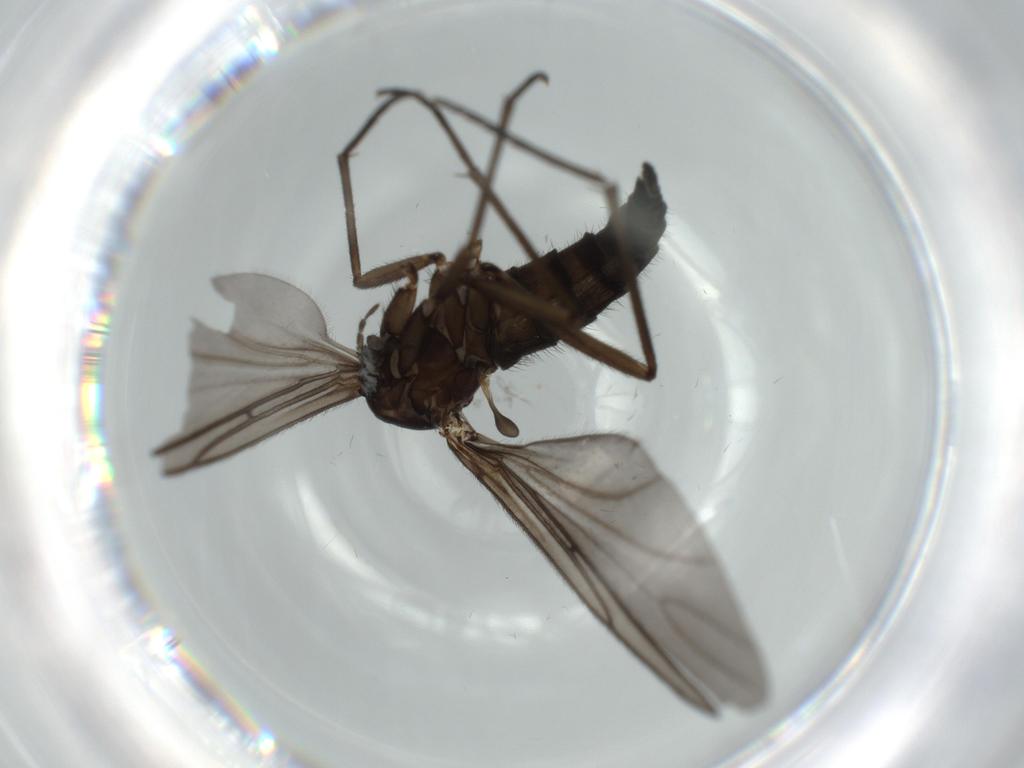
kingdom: Animalia
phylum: Arthropoda
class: Insecta
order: Diptera
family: Sciaridae
